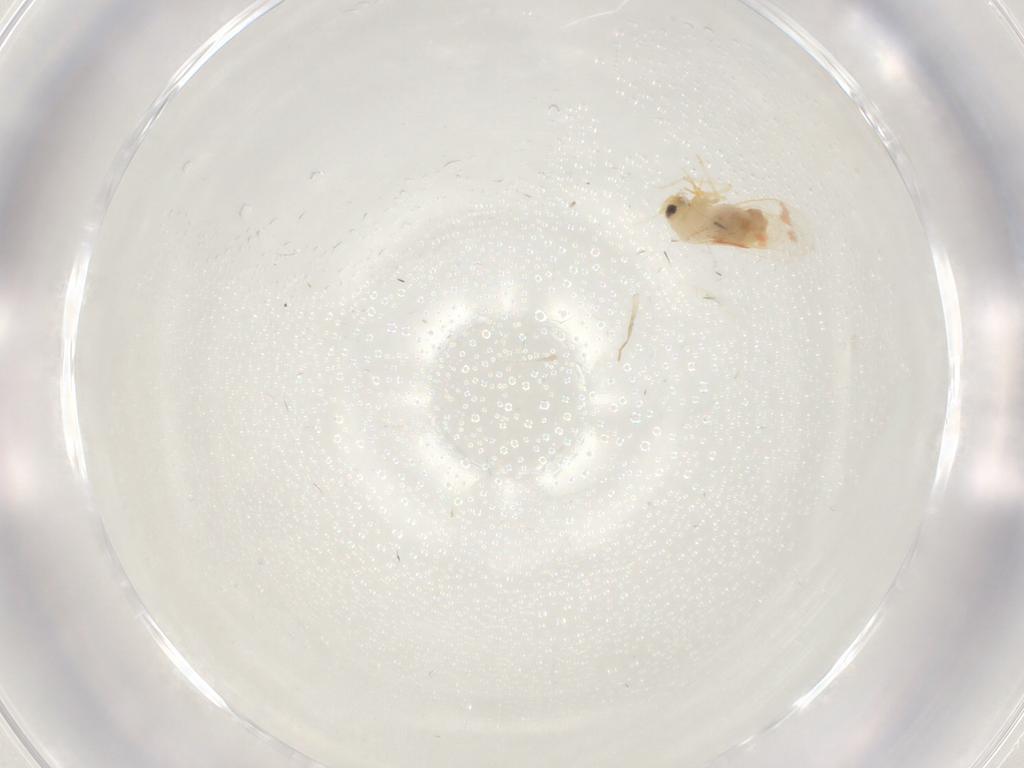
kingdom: Animalia
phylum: Arthropoda
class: Insecta
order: Hemiptera
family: Aleyrodidae
